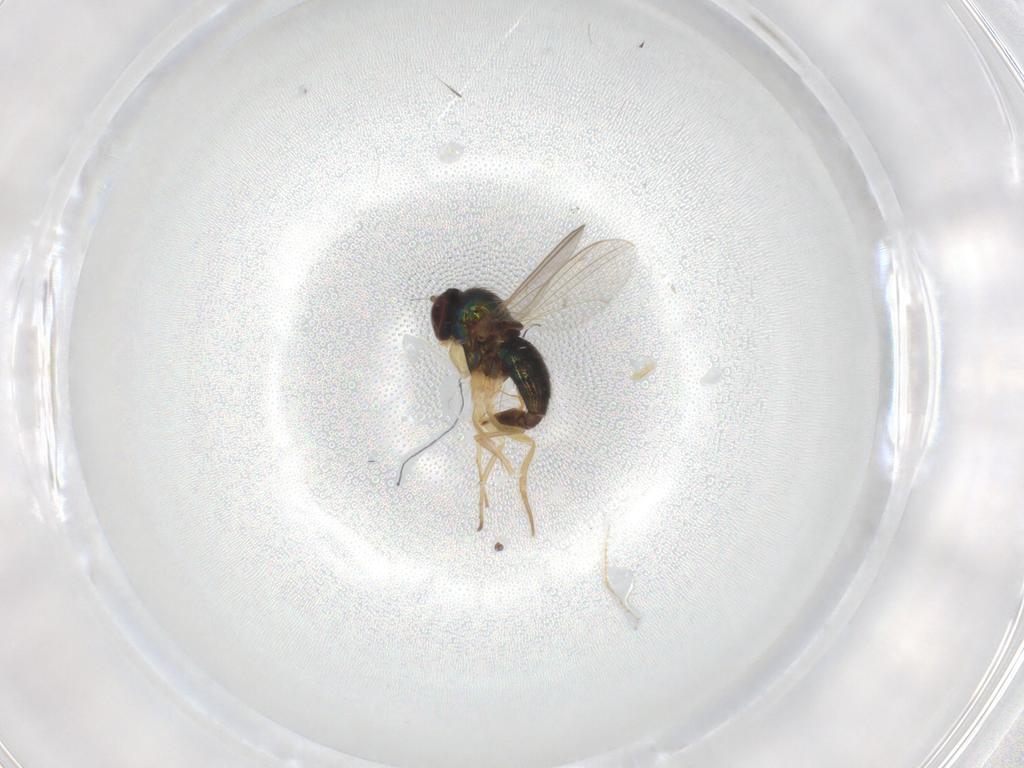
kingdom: Animalia
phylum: Arthropoda
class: Insecta
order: Diptera
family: Dolichopodidae
